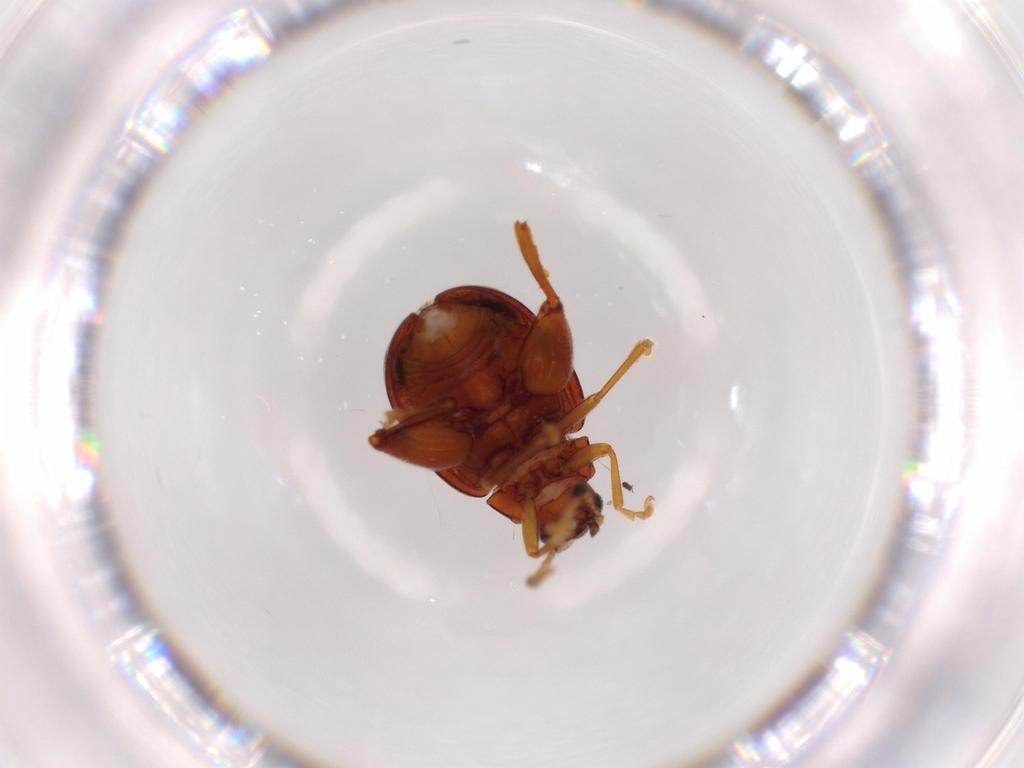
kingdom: Animalia
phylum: Arthropoda
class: Insecta
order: Coleoptera
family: Chrysomelidae
